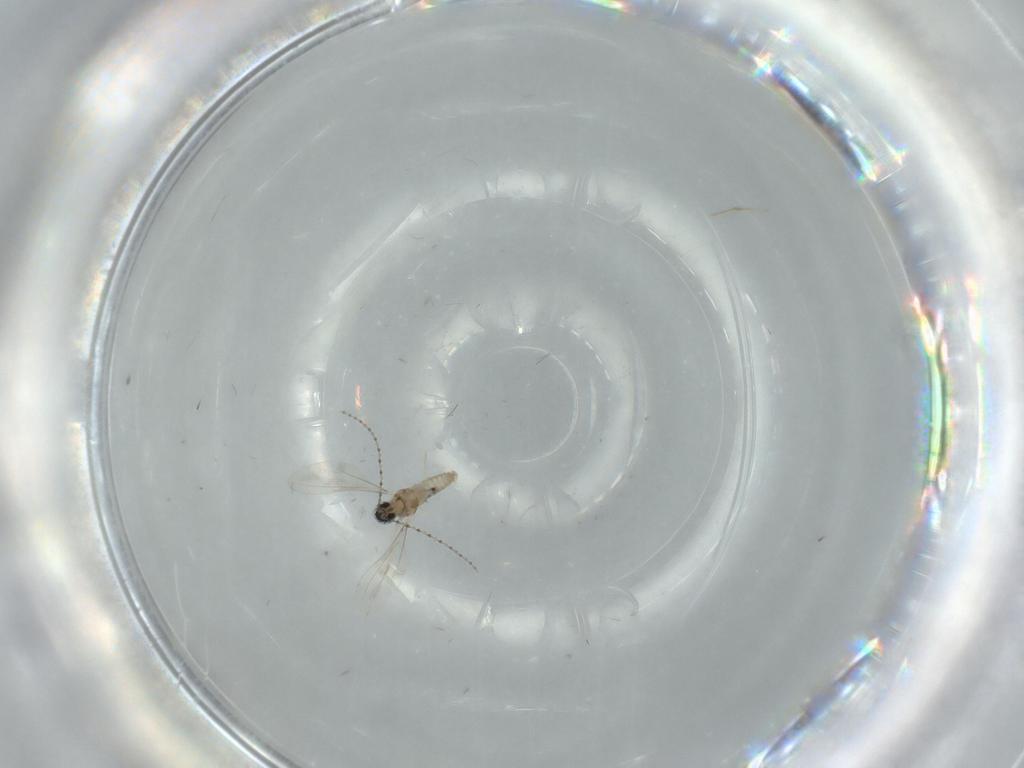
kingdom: Animalia
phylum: Arthropoda
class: Insecta
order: Diptera
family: Cecidomyiidae
